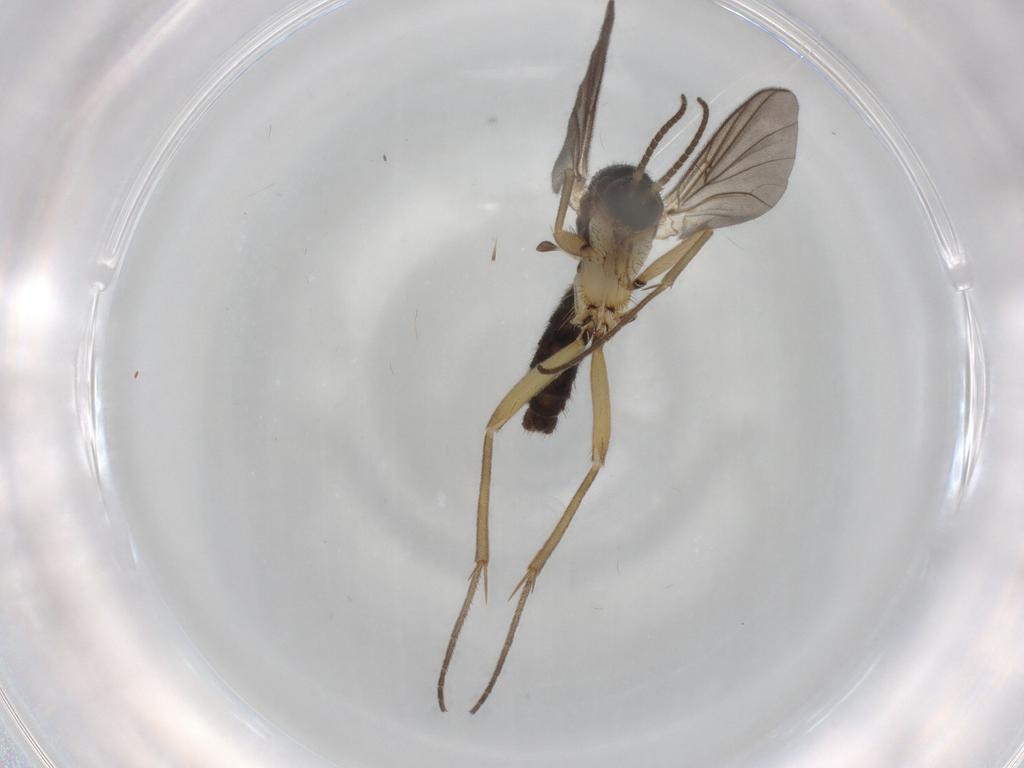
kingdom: Animalia
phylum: Arthropoda
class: Insecta
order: Diptera
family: Mycetophilidae
